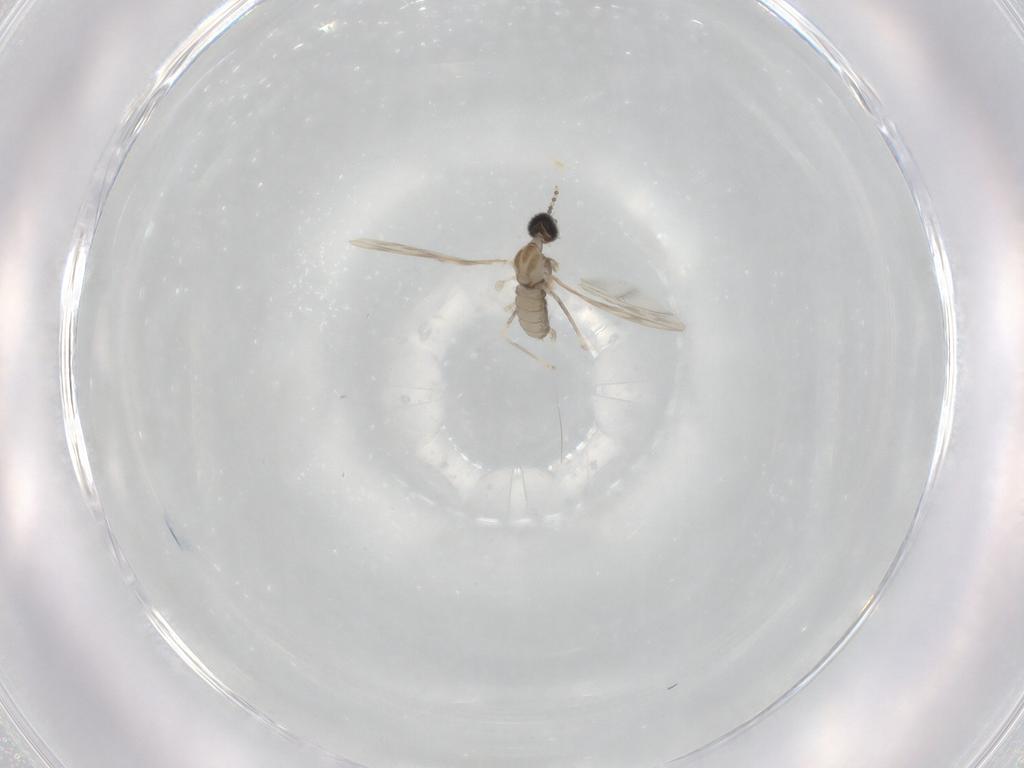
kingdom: Animalia
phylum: Arthropoda
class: Insecta
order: Diptera
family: Cecidomyiidae
